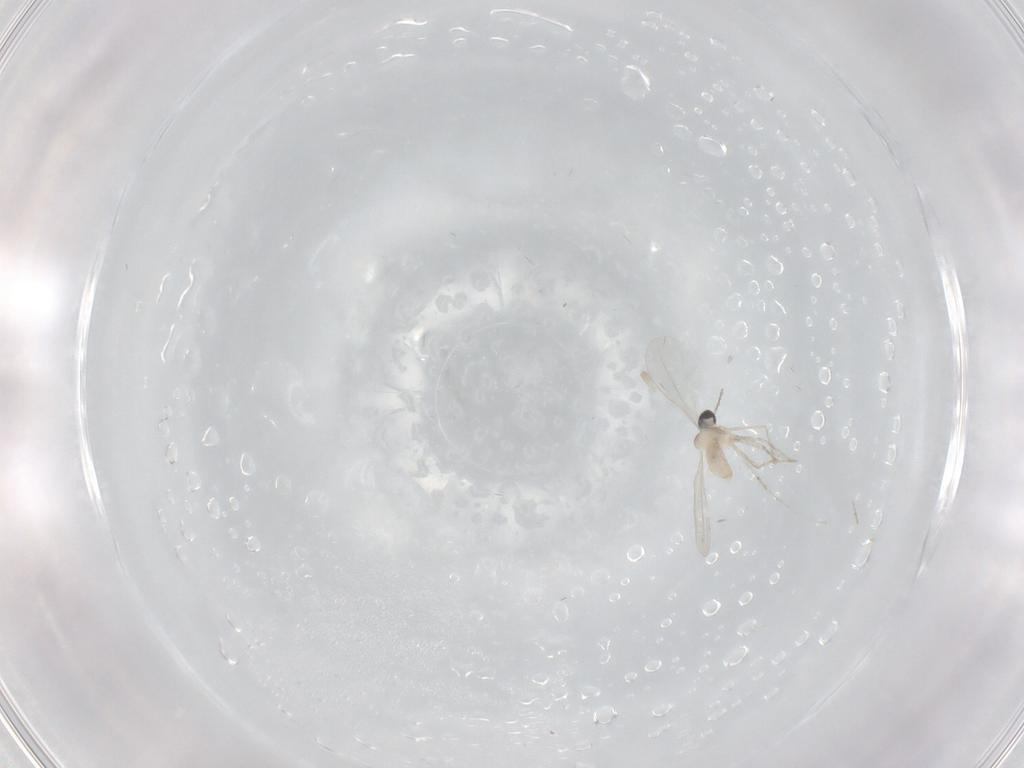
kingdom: Animalia
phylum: Arthropoda
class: Insecta
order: Diptera
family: Cecidomyiidae
